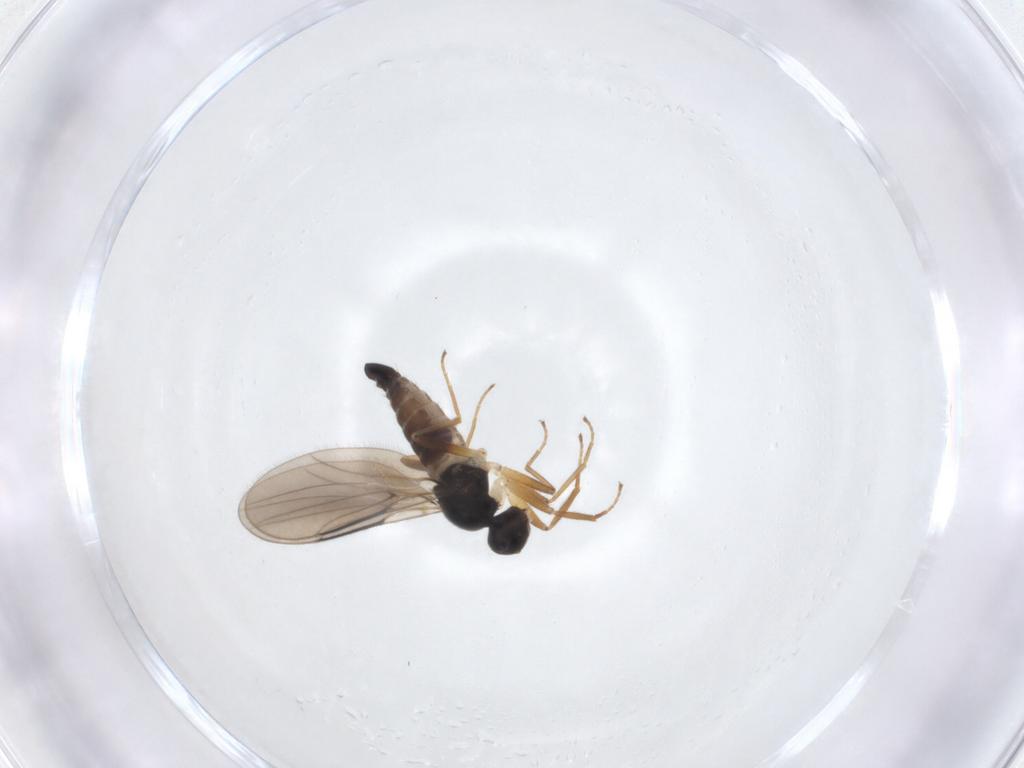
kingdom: Animalia
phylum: Arthropoda
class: Insecta
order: Diptera
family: Hybotidae
